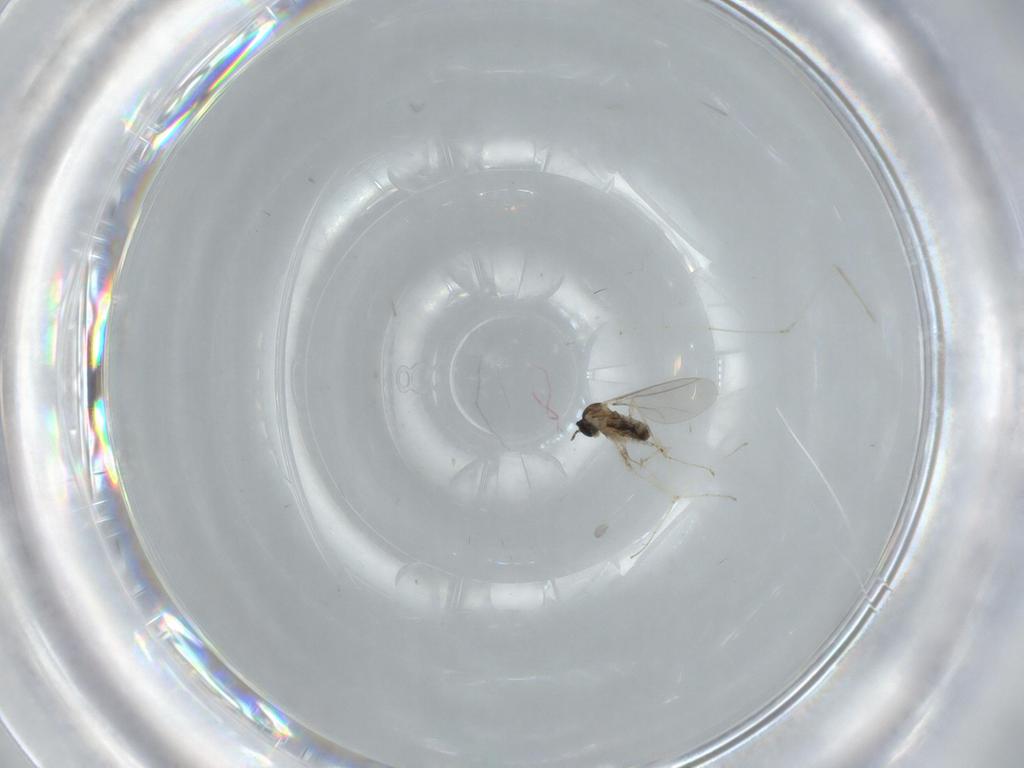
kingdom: Animalia
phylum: Arthropoda
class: Insecta
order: Diptera
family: Cecidomyiidae
